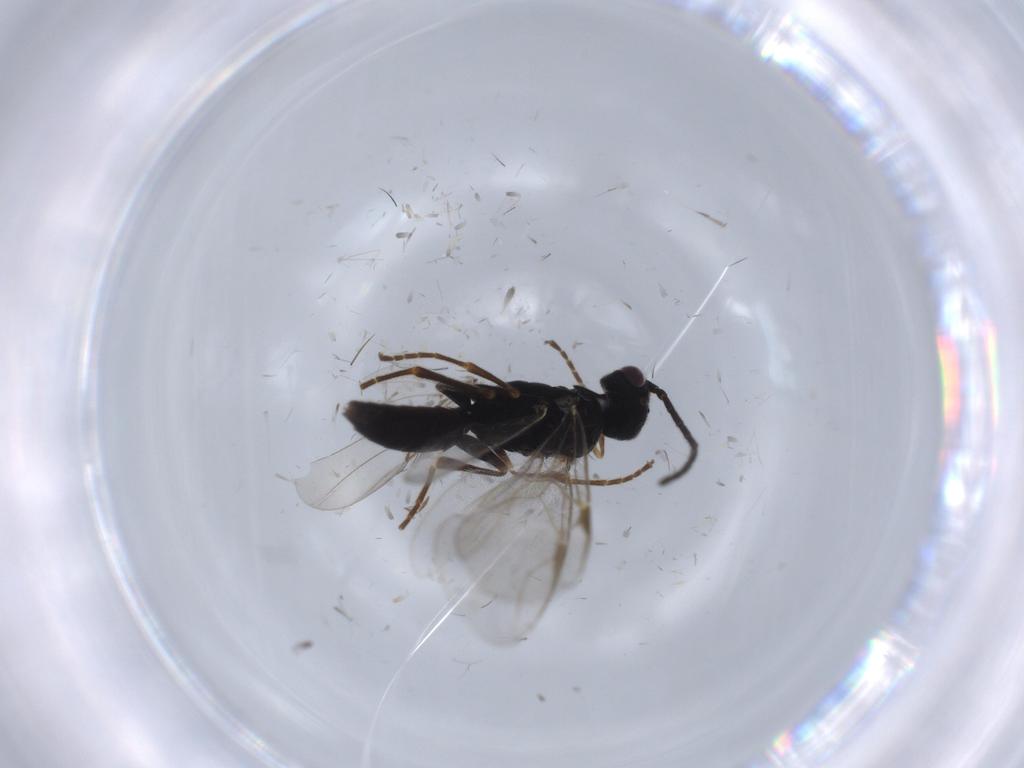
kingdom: Animalia
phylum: Arthropoda
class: Insecta
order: Hymenoptera
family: Dryinidae
